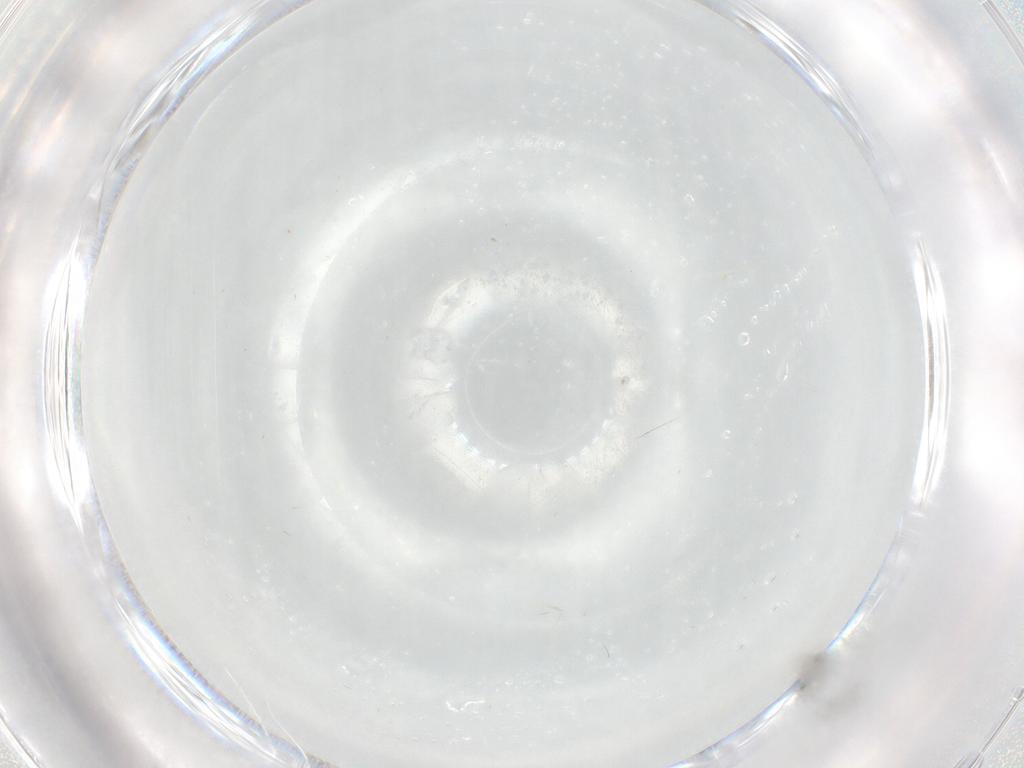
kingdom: Animalia
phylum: Arthropoda
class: Insecta
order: Diptera
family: Cecidomyiidae
